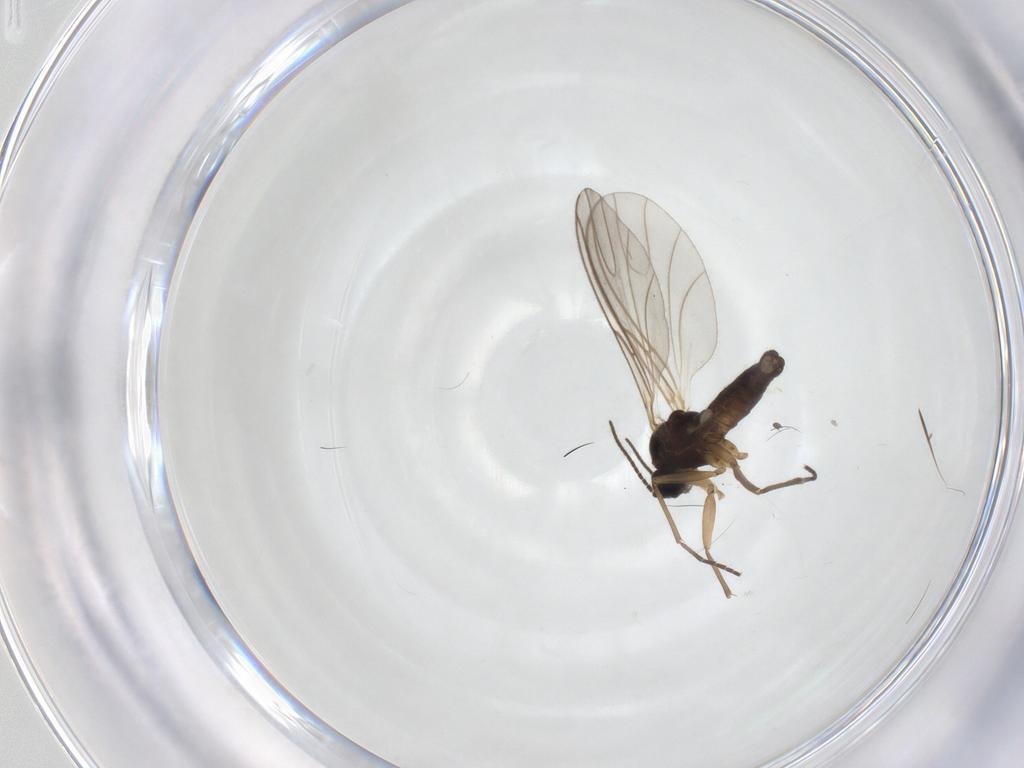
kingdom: Animalia
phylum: Arthropoda
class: Insecta
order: Diptera
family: Sciaridae
